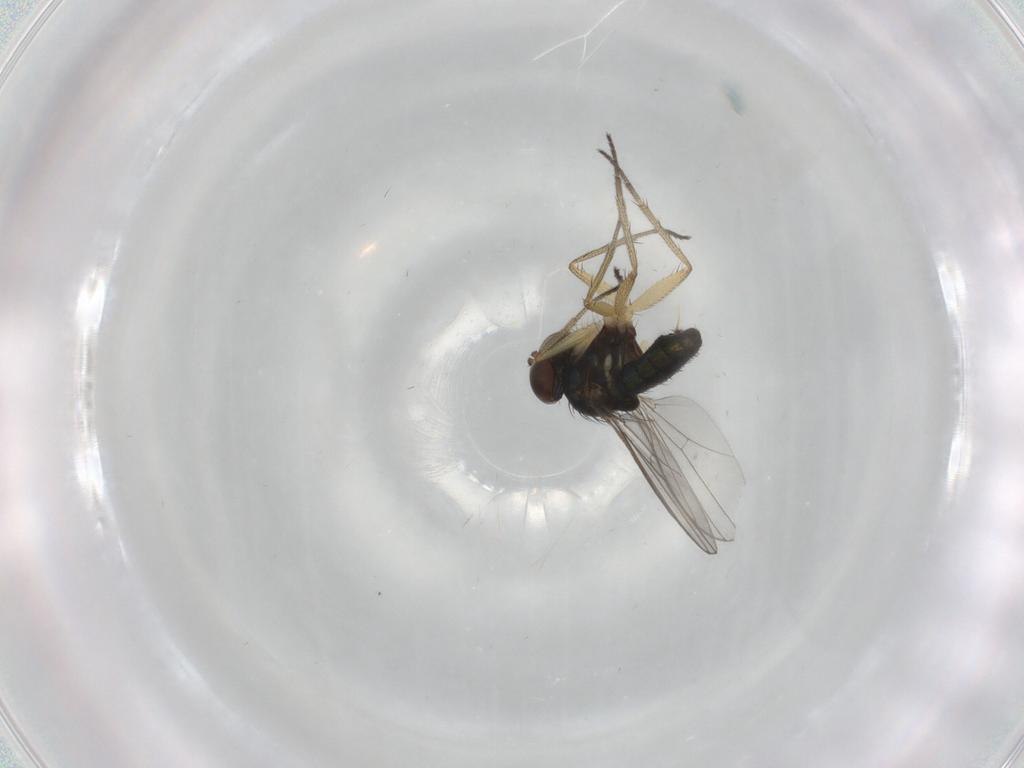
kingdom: Animalia
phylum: Arthropoda
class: Insecta
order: Diptera
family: Dolichopodidae
